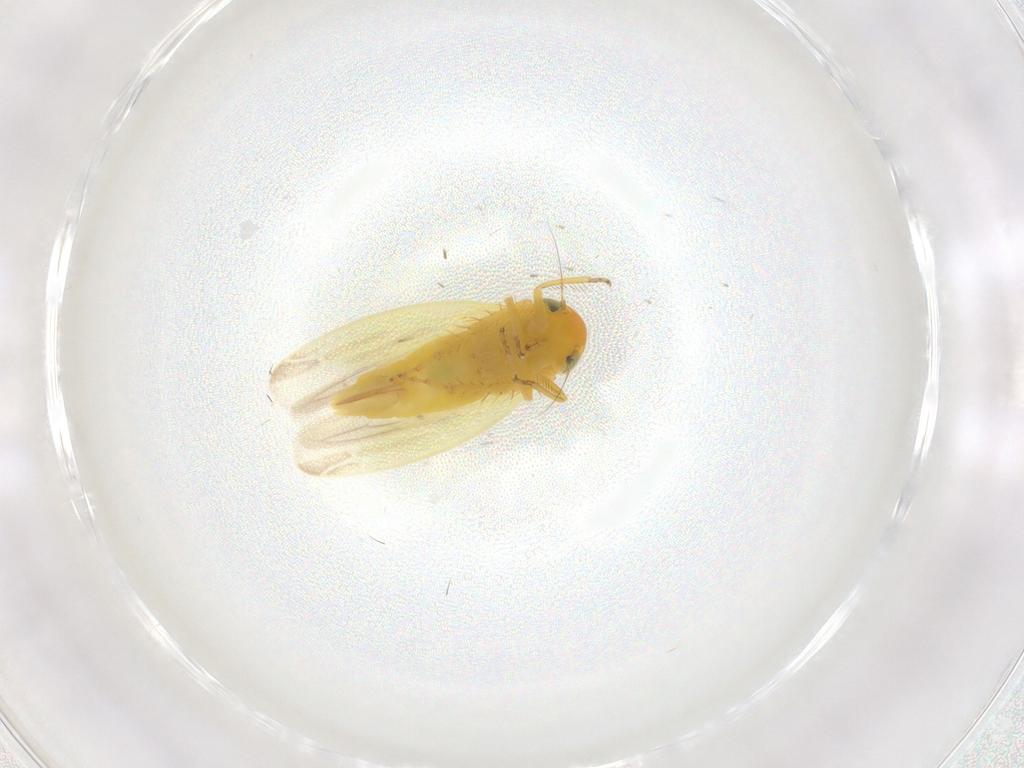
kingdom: Animalia
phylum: Arthropoda
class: Insecta
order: Hemiptera
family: Cicadellidae
